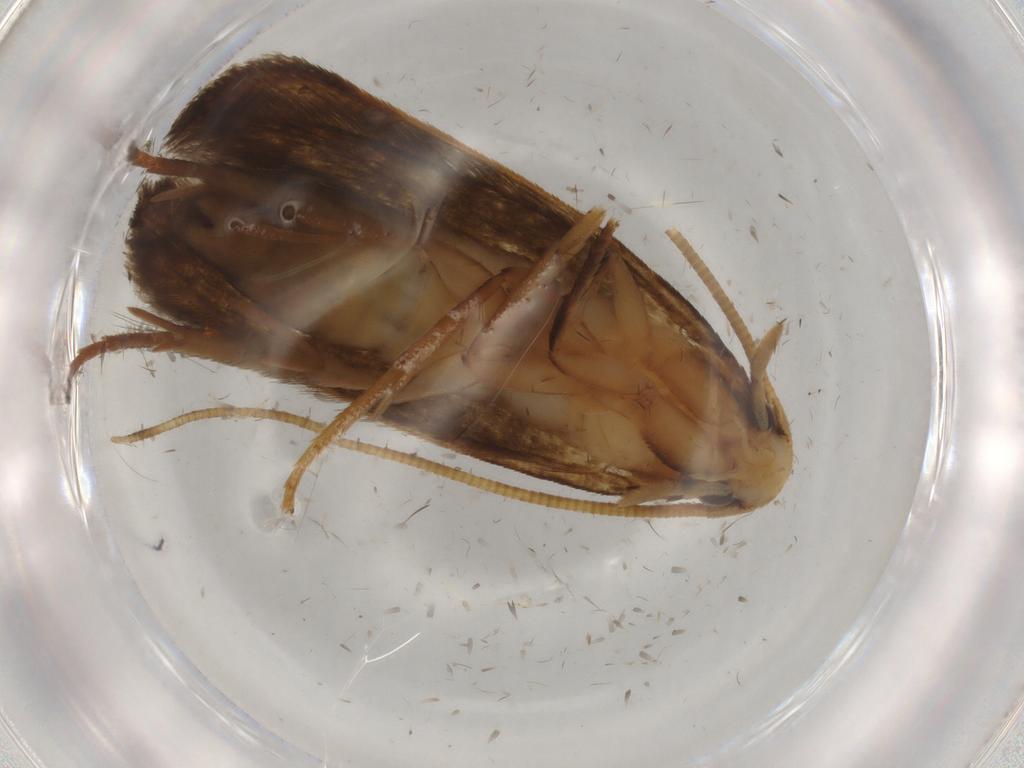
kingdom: Animalia
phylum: Arthropoda
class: Insecta
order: Lepidoptera
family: Tineidae
